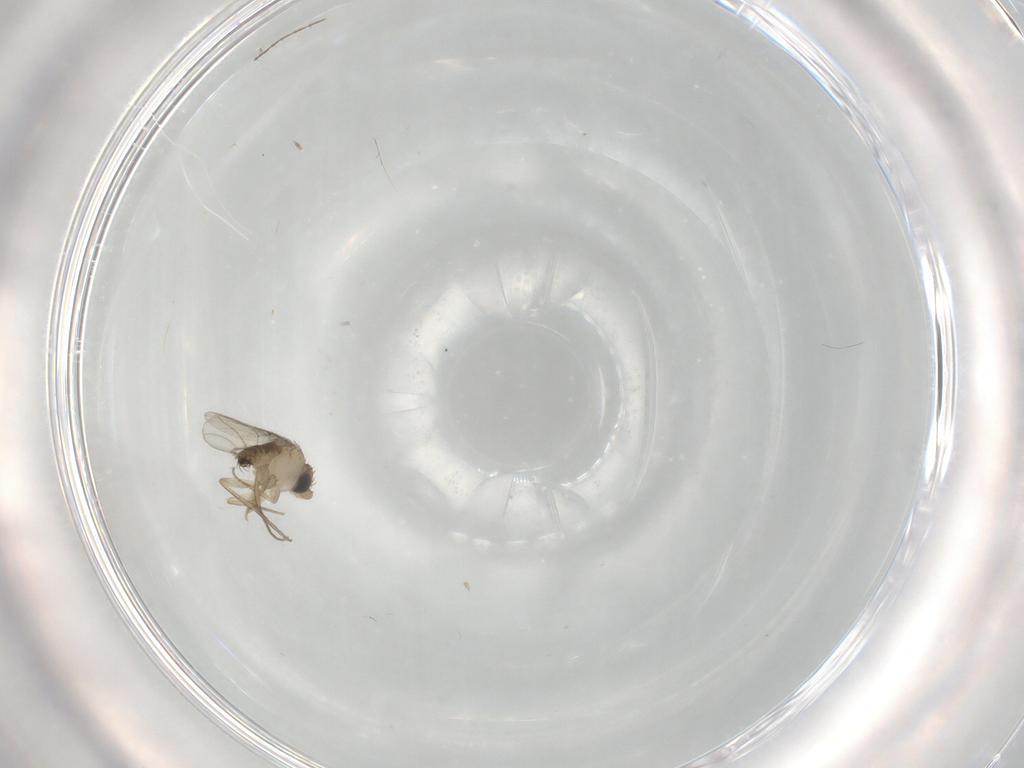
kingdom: Animalia
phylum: Arthropoda
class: Insecta
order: Diptera
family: Phoridae
